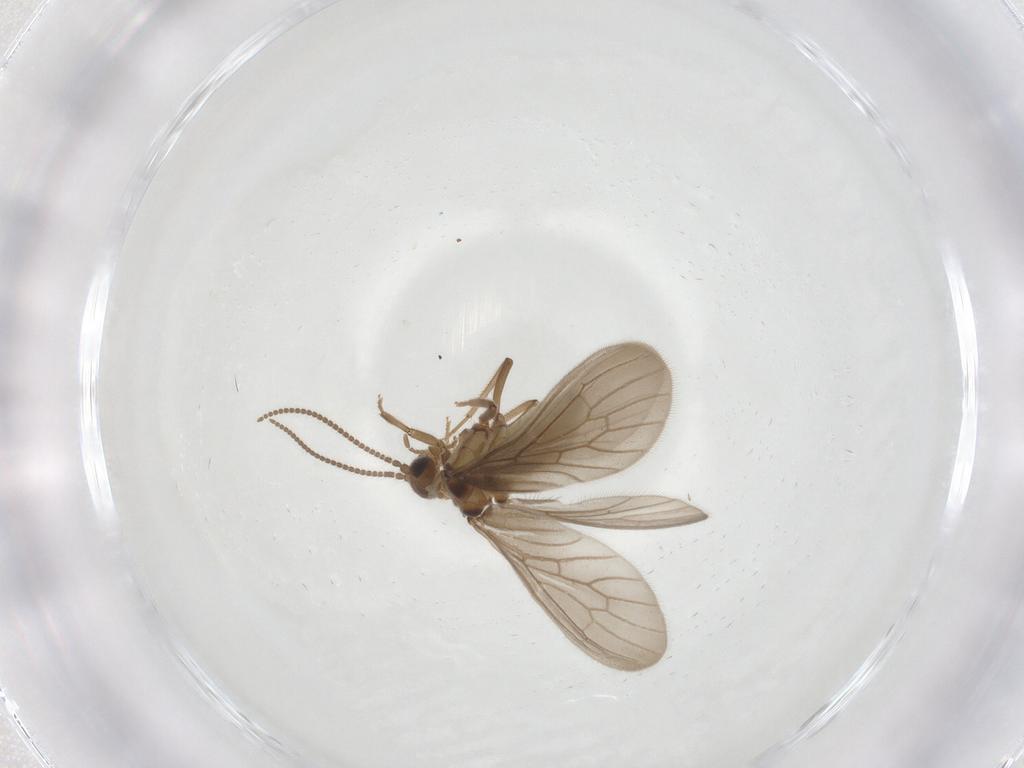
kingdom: Animalia
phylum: Arthropoda
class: Insecta
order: Neuroptera
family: Coniopterygidae
